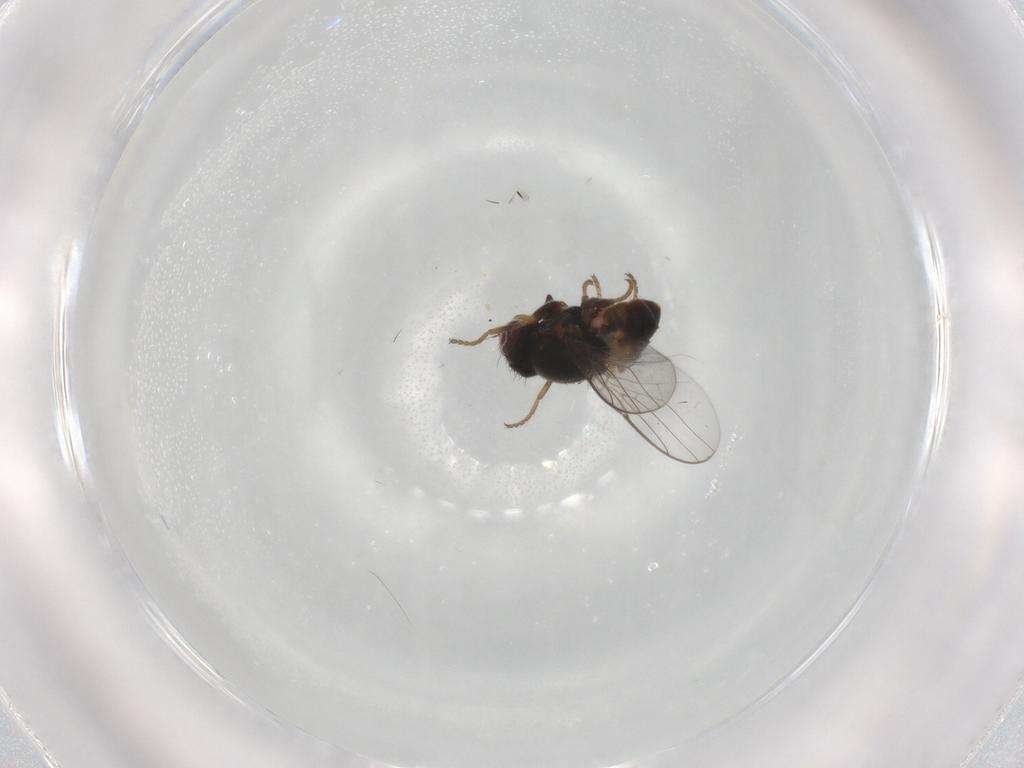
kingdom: Animalia
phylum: Arthropoda
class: Insecta
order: Diptera
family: Chloropidae
